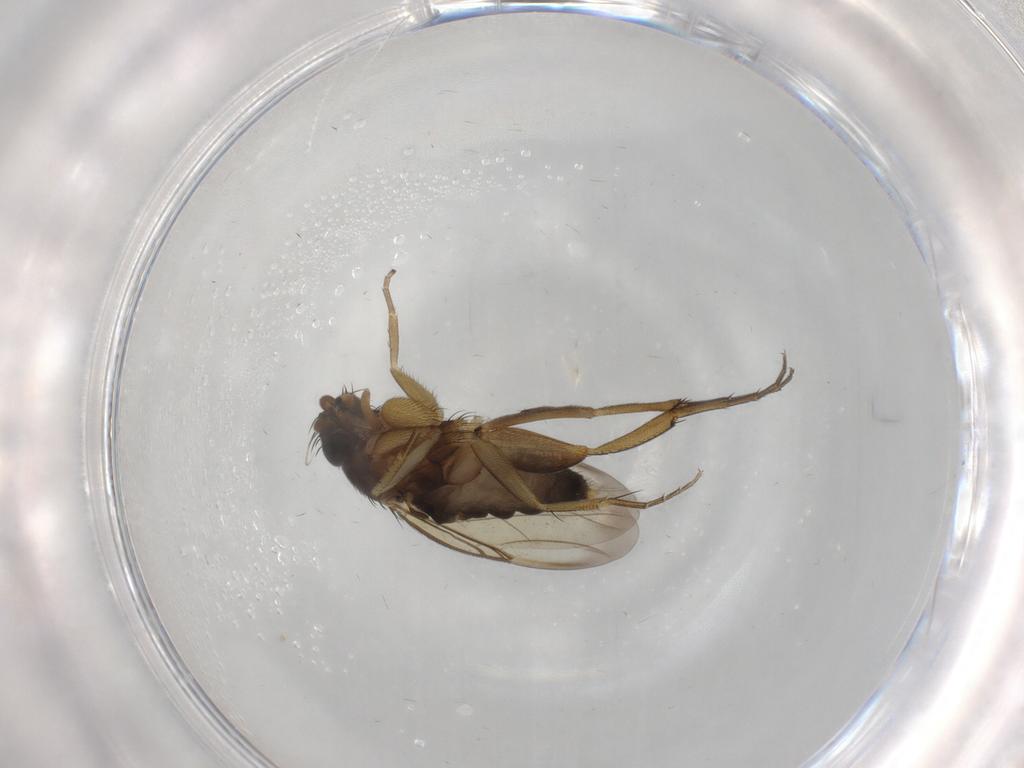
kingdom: Animalia
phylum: Arthropoda
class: Insecta
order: Diptera
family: Phoridae
